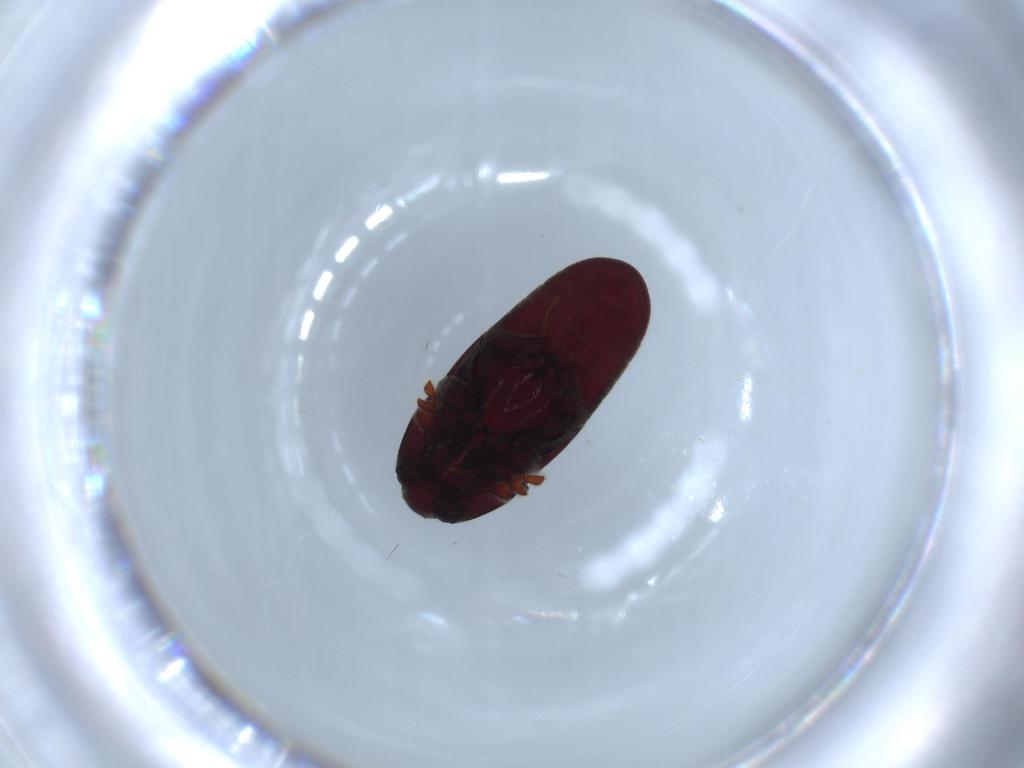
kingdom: Animalia
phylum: Arthropoda
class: Insecta
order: Coleoptera
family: Throscidae
